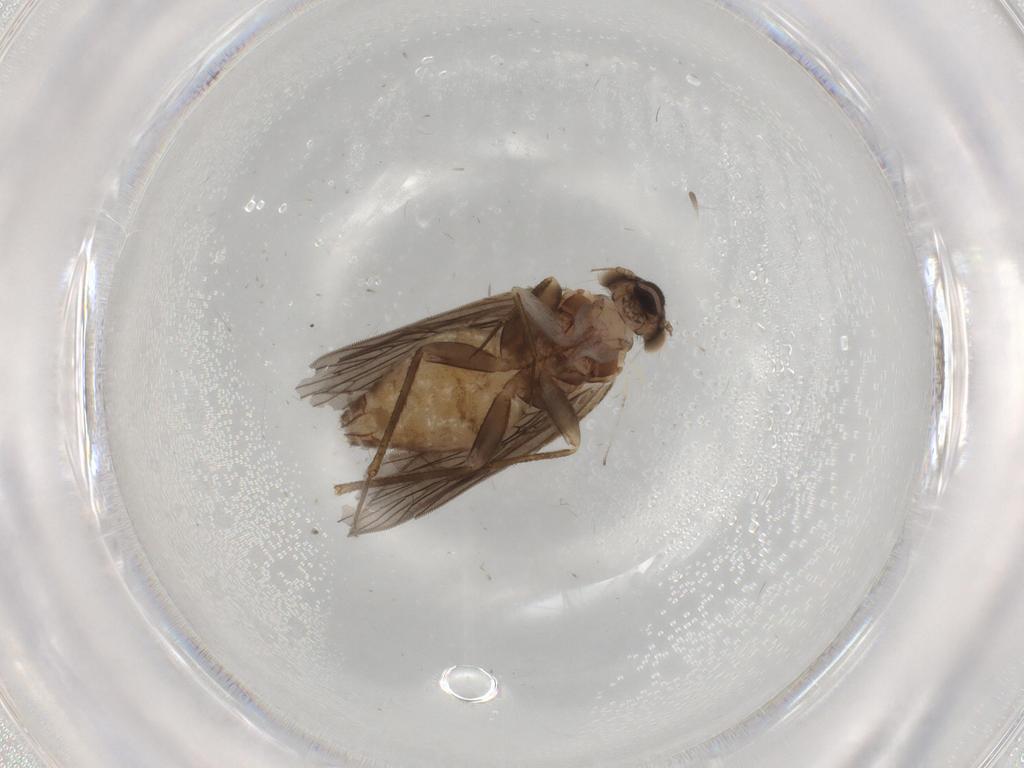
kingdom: Animalia
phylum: Arthropoda
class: Insecta
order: Psocodea
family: Lepidopsocidae
